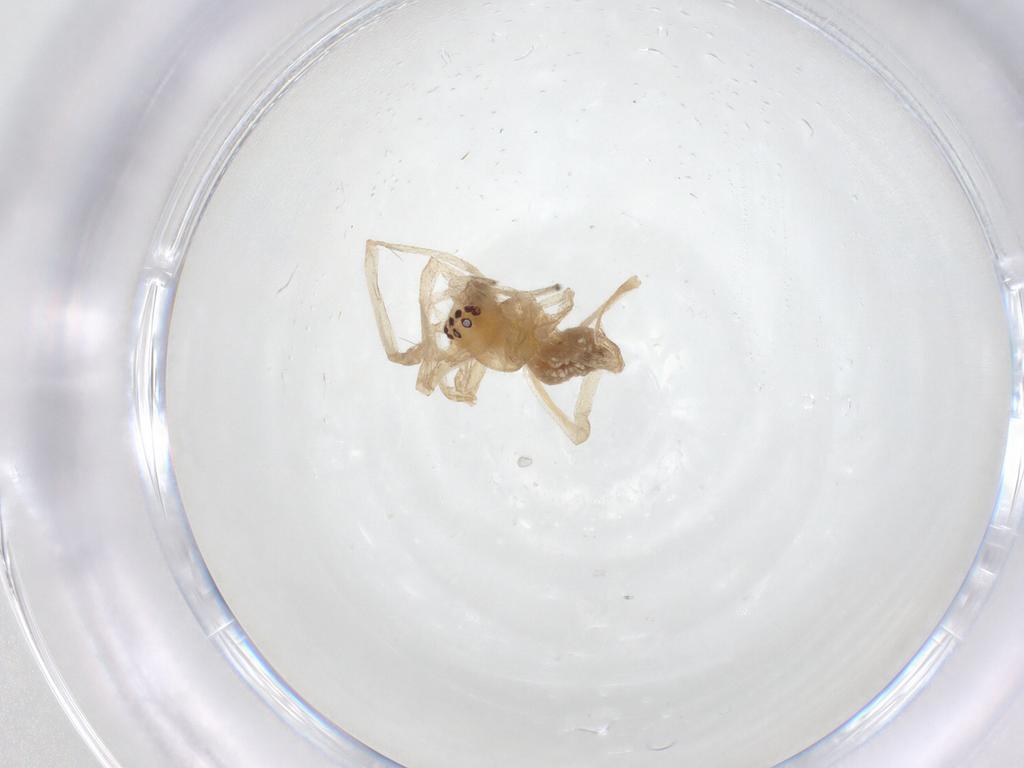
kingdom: Animalia
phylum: Arthropoda
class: Arachnida
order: Araneae
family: Cheiracanthiidae
